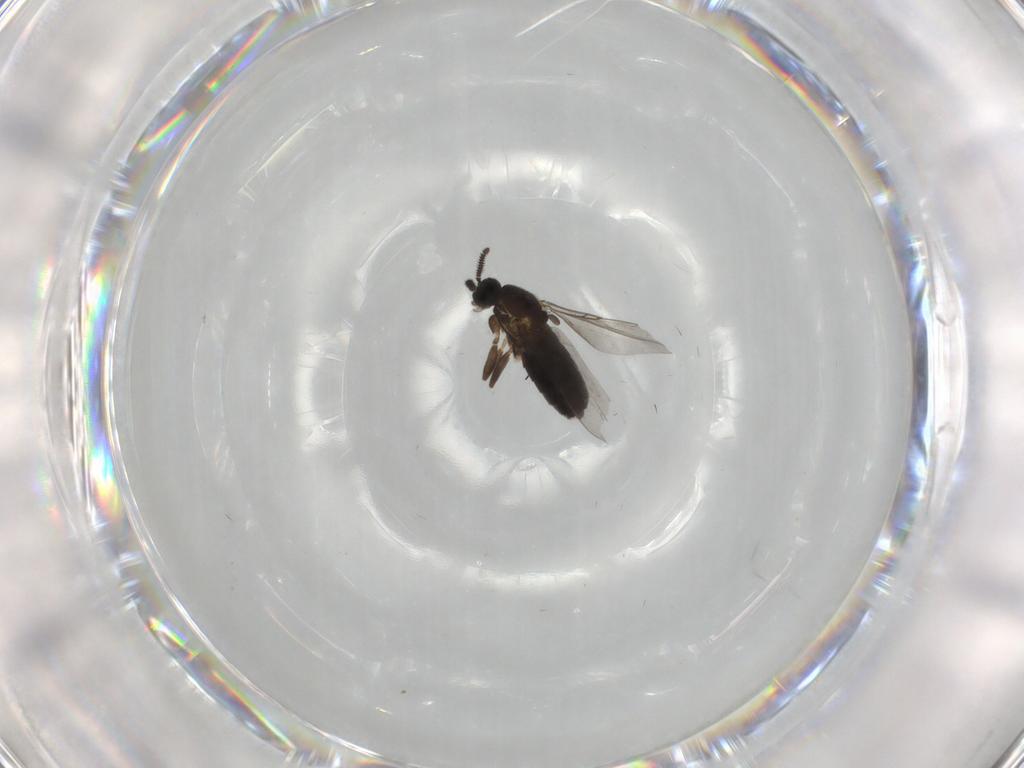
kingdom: Animalia
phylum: Arthropoda
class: Insecta
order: Diptera
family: Scatopsidae
